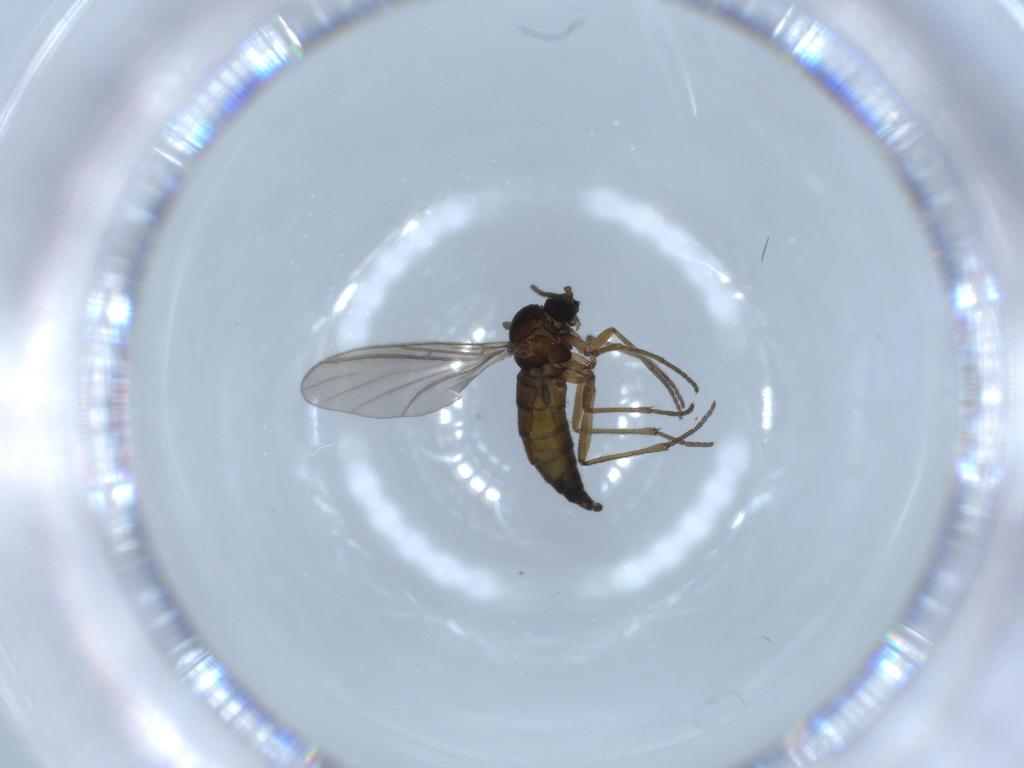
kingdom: Animalia
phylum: Arthropoda
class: Insecta
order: Diptera
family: Sciaridae
